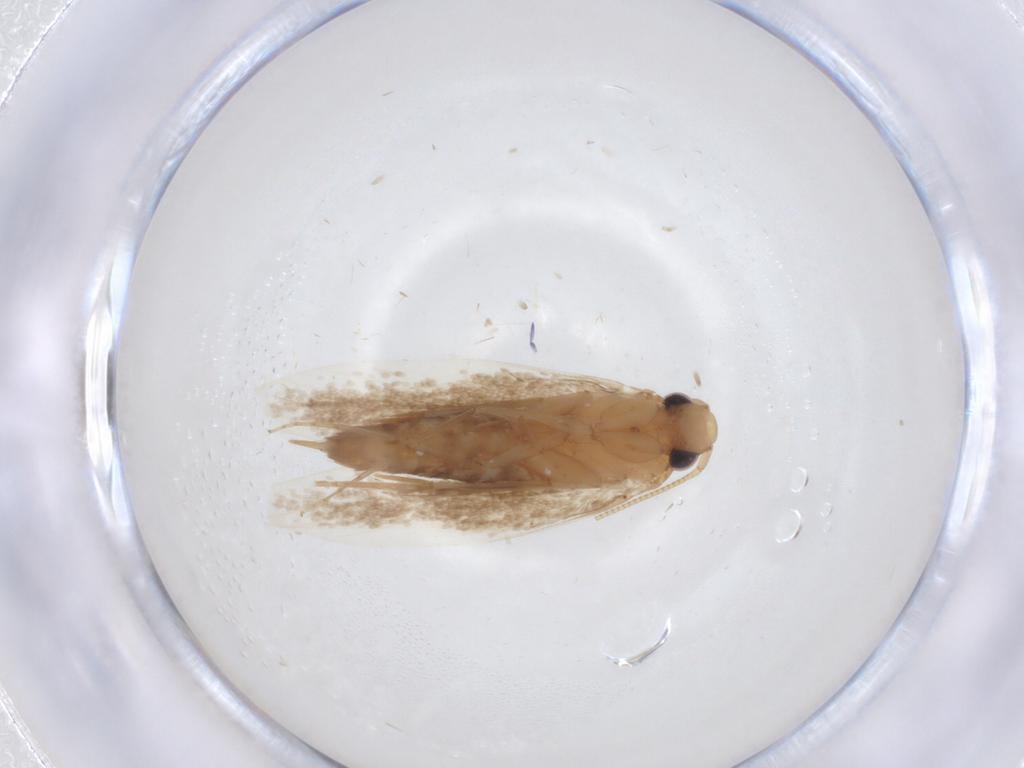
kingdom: Animalia
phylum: Arthropoda
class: Insecta
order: Lepidoptera
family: Tineidae
